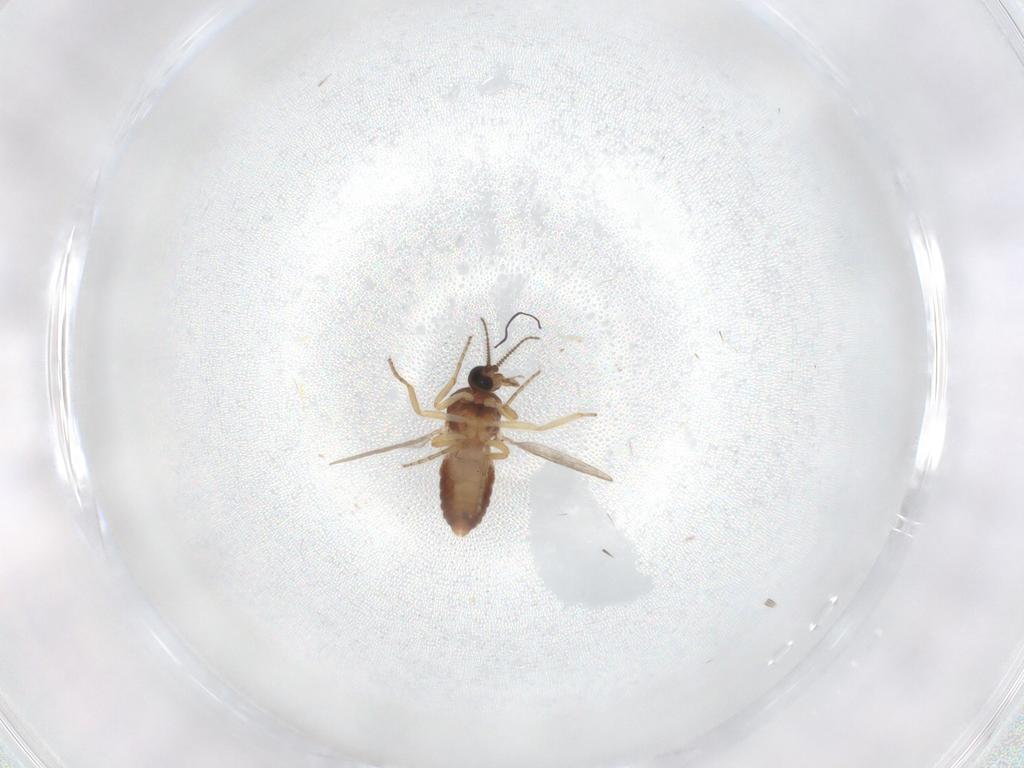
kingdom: Animalia
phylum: Arthropoda
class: Insecta
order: Diptera
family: Ceratopogonidae
